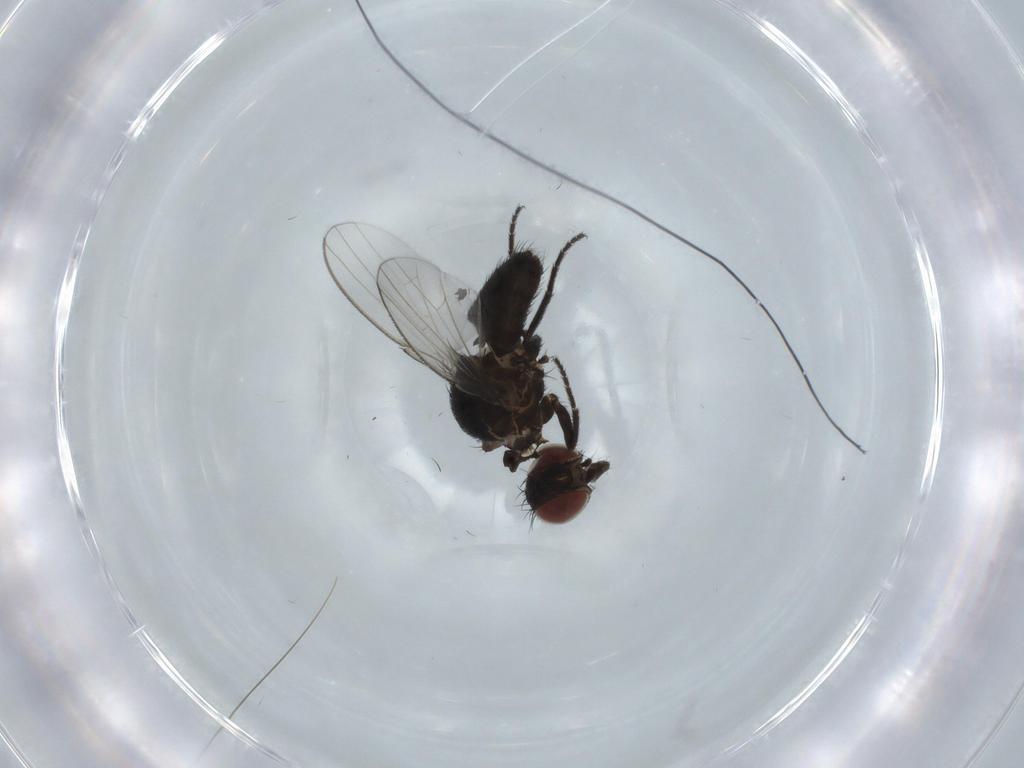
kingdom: Animalia
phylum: Arthropoda
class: Insecta
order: Diptera
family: Milichiidae
